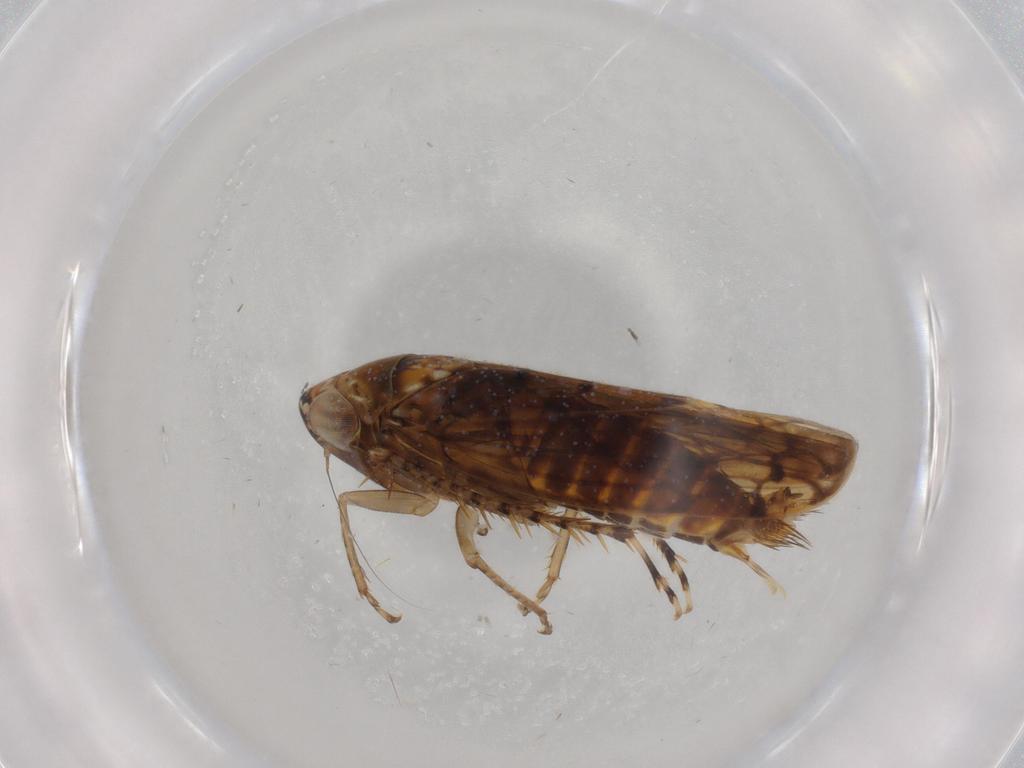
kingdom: Animalia
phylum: Arthropoda
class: Insecta
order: Hemiptera
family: Cicadellidae
